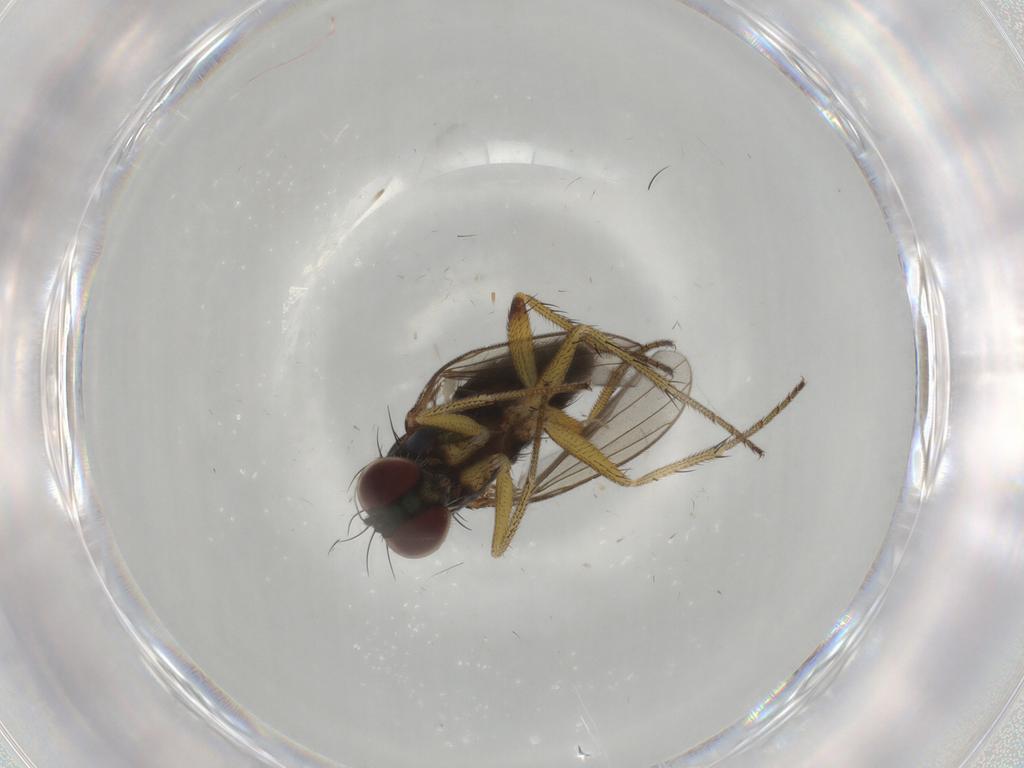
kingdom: Animalia
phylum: Arthropoda
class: Insecta
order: Diptera
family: Dolichopodidae
